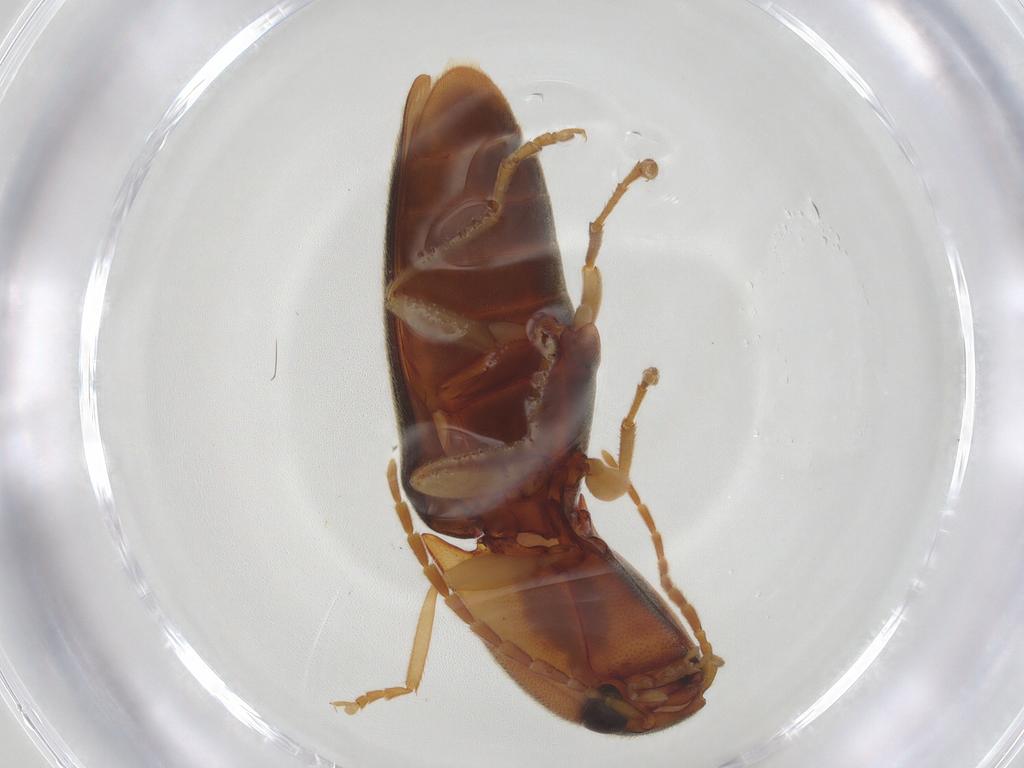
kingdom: Animalia
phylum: Arthropoda
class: Insecta
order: Coleoptera
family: Elateridae
